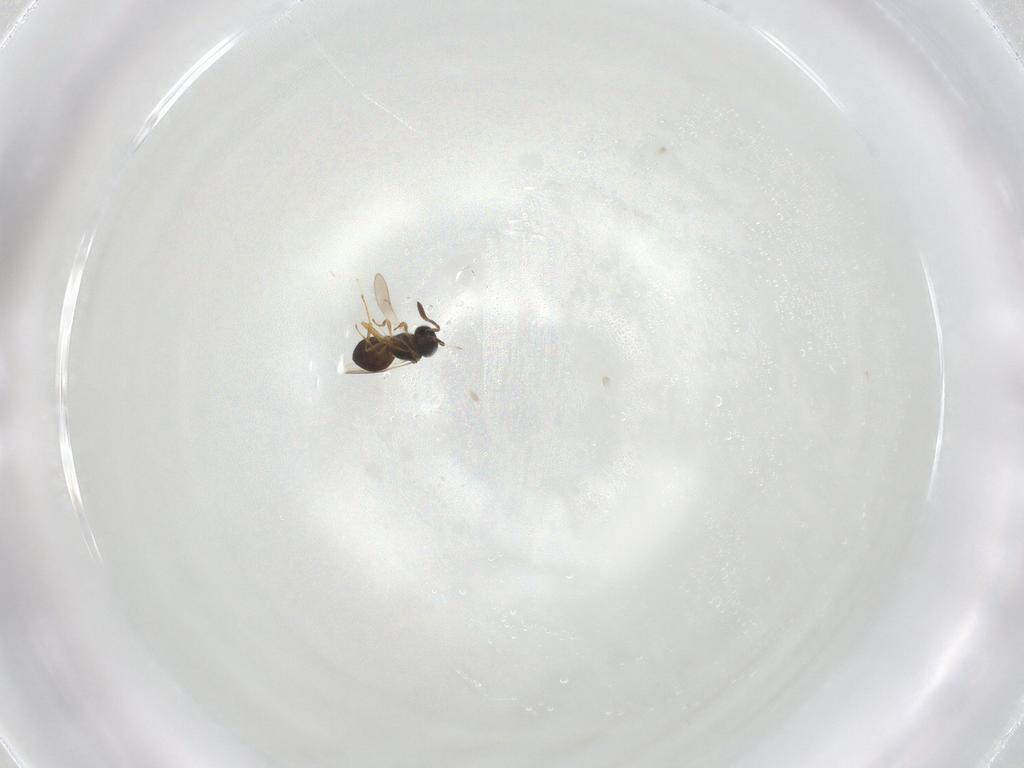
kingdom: Animalia
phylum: Arthropoda
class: Insecta
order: Hymenoptera
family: Scelionidae
